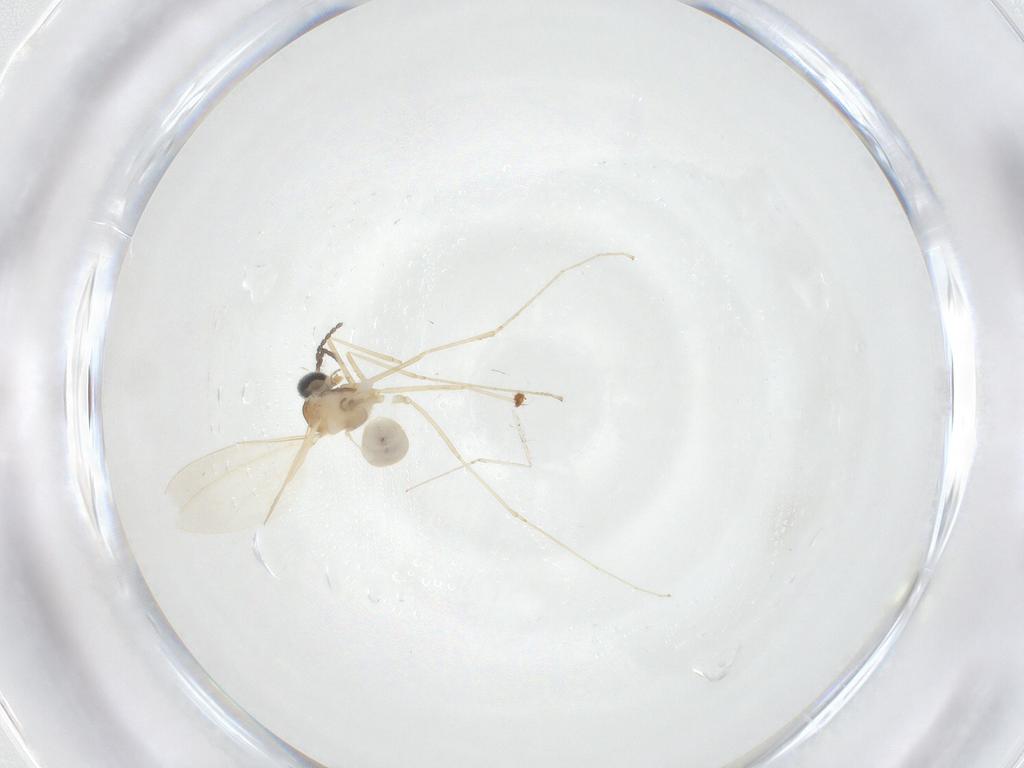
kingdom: Animalia
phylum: Arthropoda
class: Insecta
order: Diptera
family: Cecidomyiidae
